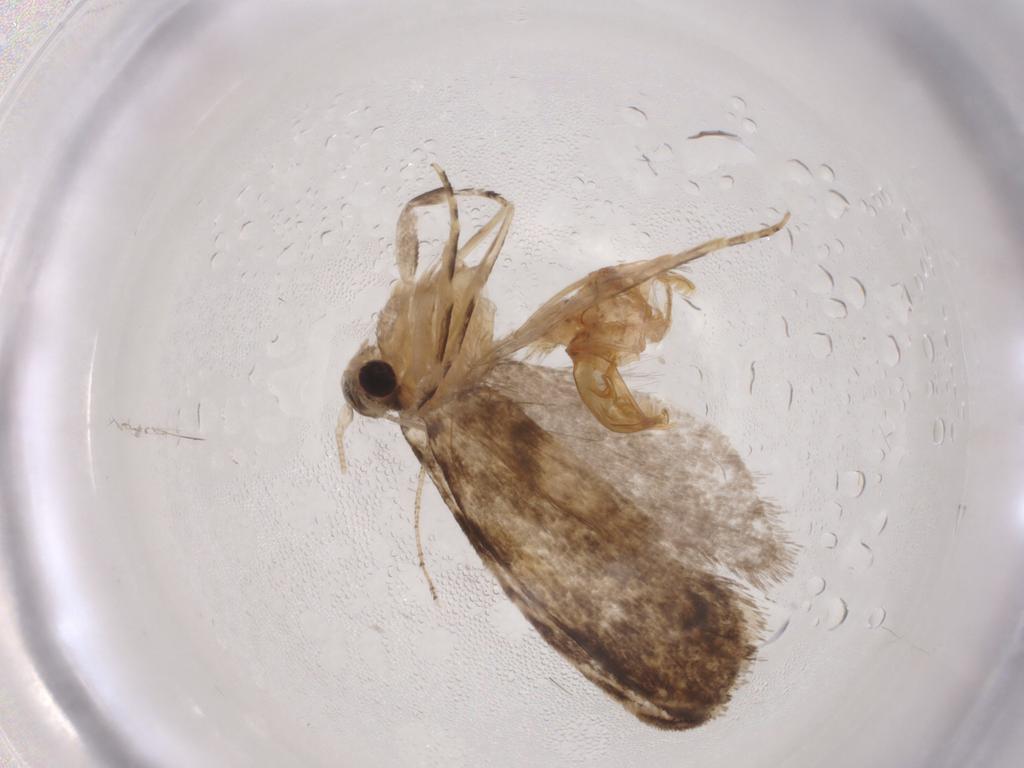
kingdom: Animalia
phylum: Arthropoda
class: Insecta
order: Lepidoptera
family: Tineidae
